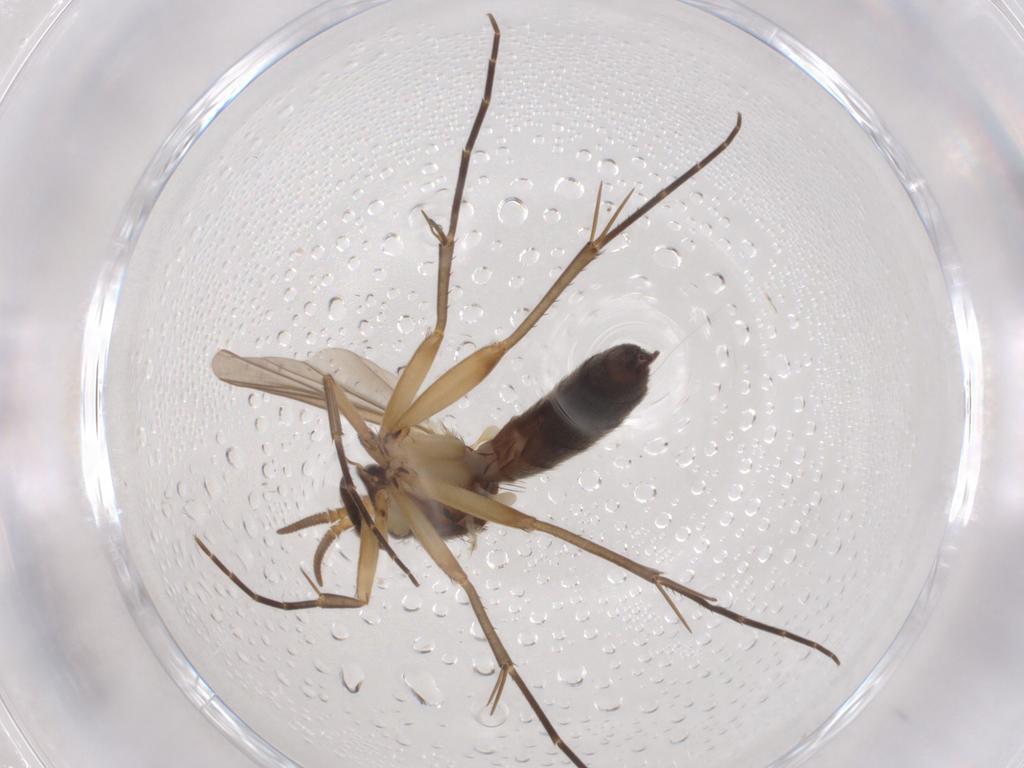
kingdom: Animalia
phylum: Arthropoda
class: Insecta
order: Diptera
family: Mycetophilidae
